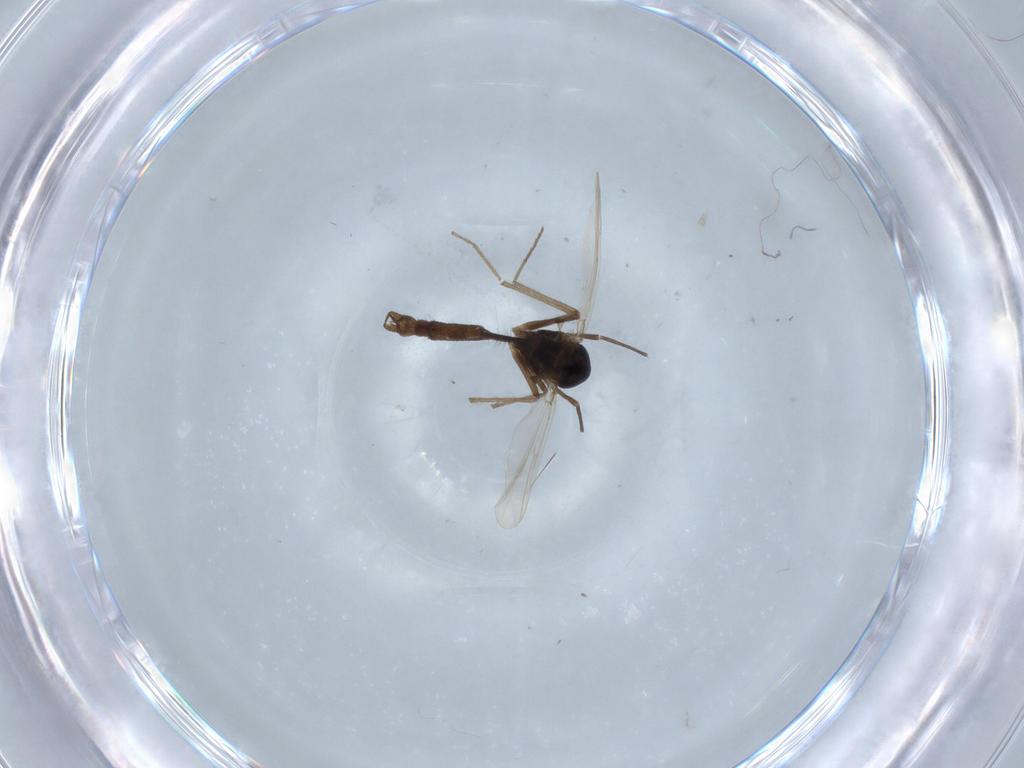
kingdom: Animalia
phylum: Arthropoda
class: Insecta
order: Diptera
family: Chironomidae
